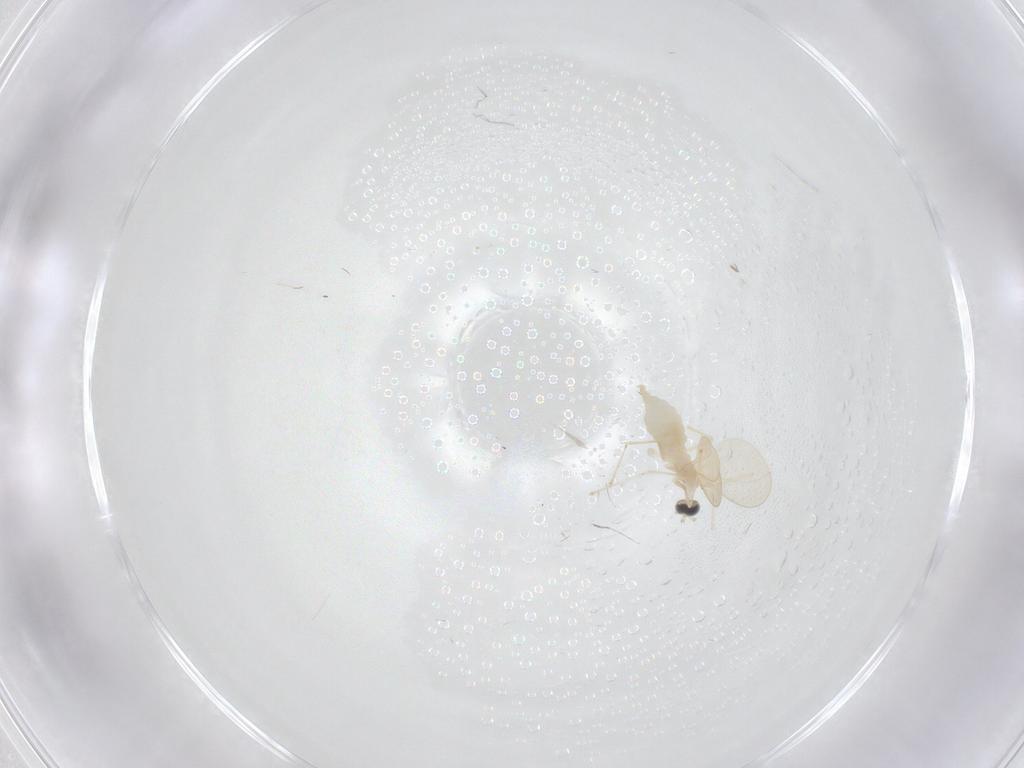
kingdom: Animalia
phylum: Arthropoda
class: Insecta
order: Diptera
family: Cecidomyiidae
